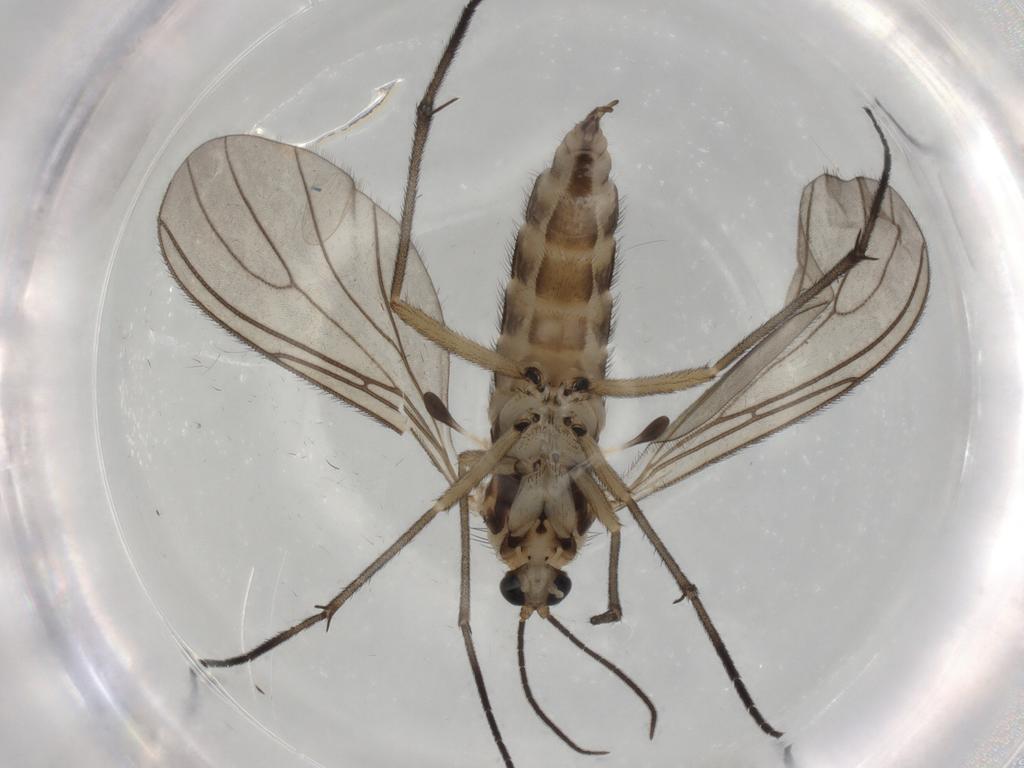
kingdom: Animalia
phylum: Arthropoda
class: Insecta
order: Diptera
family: Sciaridae
